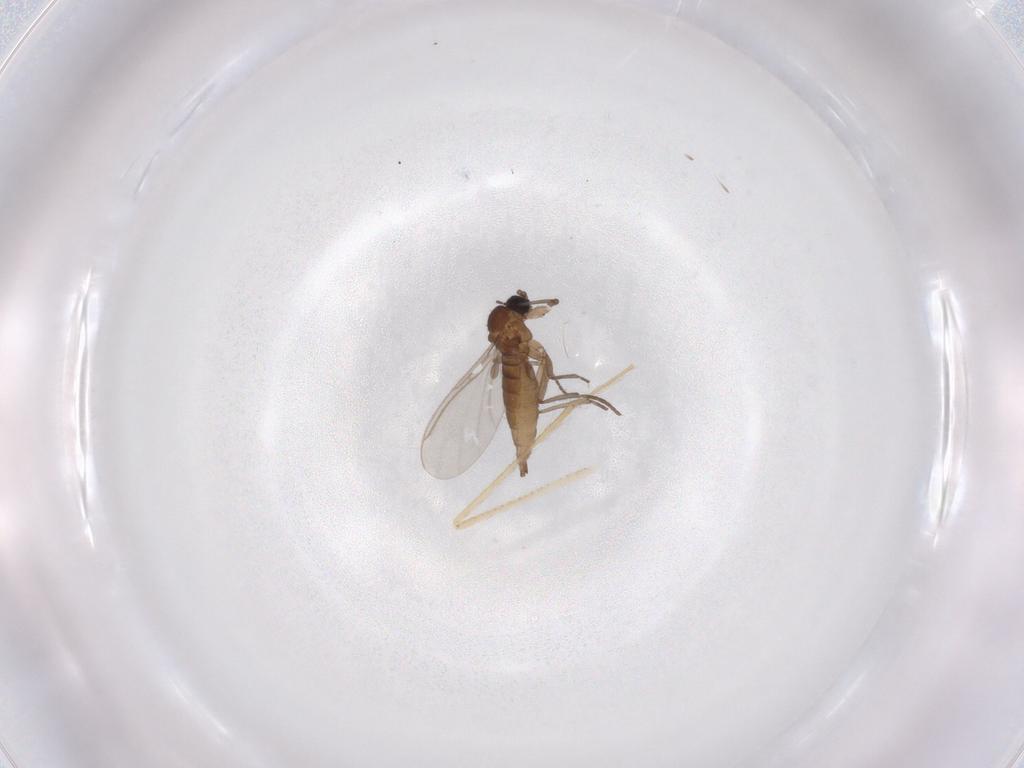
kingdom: Animalia
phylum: Arthropoda
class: Insecta
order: Diptera
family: Sciaridae
